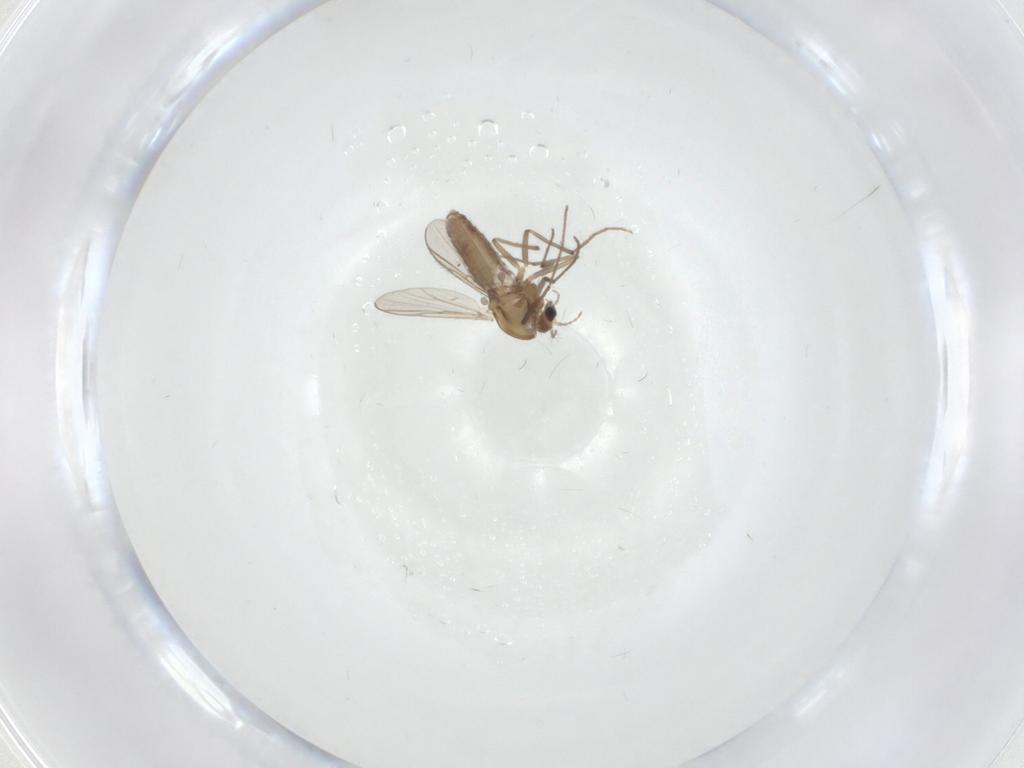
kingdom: Animalia
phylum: Arthropoda
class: Insecta
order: Diptera
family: Chironomidae
